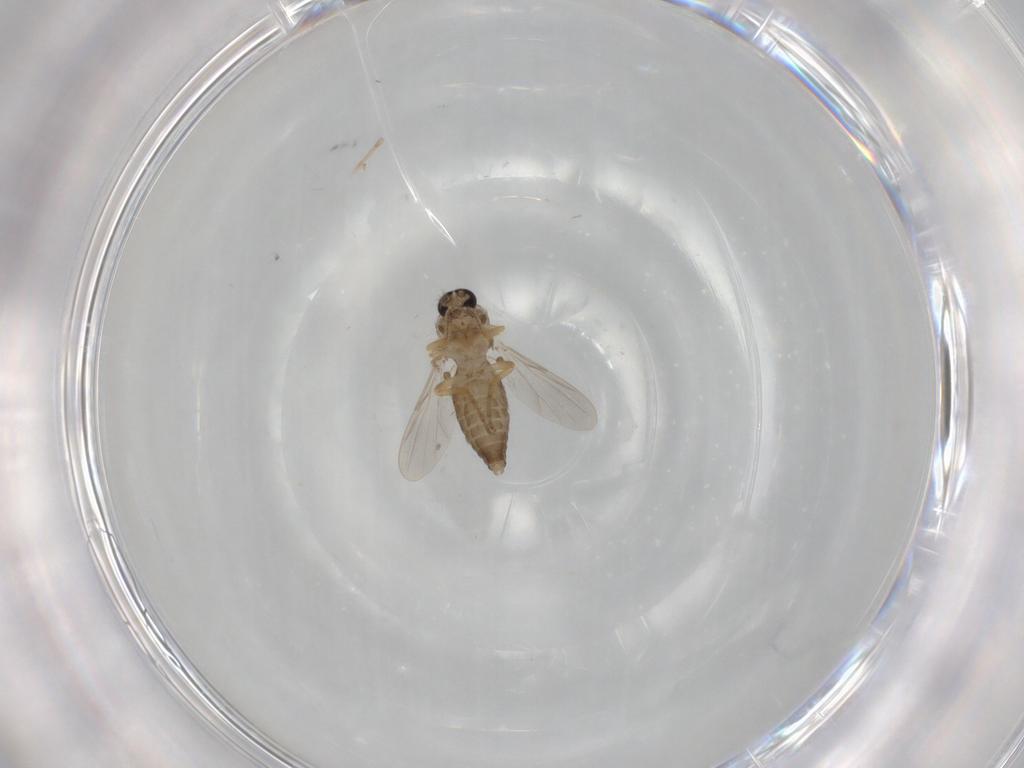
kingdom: Animalia
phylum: Arthropoda
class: Insecta
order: Diptera
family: Ceratopogonidae
